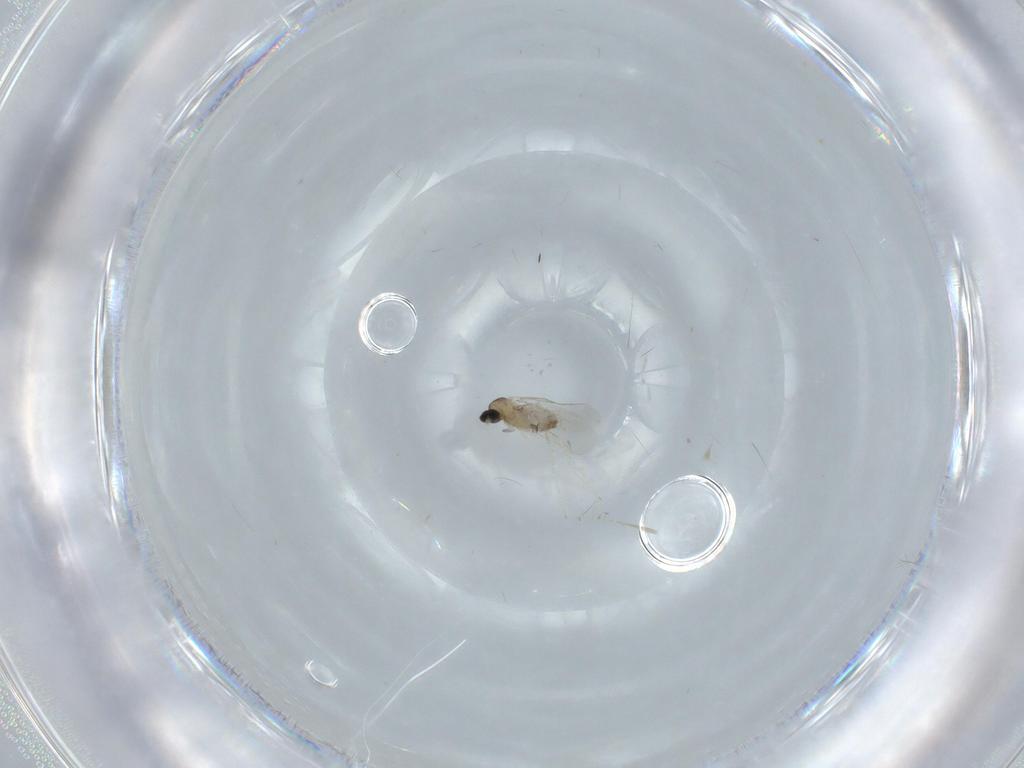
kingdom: Animalia
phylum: Arthropoda
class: Insecta
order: Diptera
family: Cecidomyiidae
